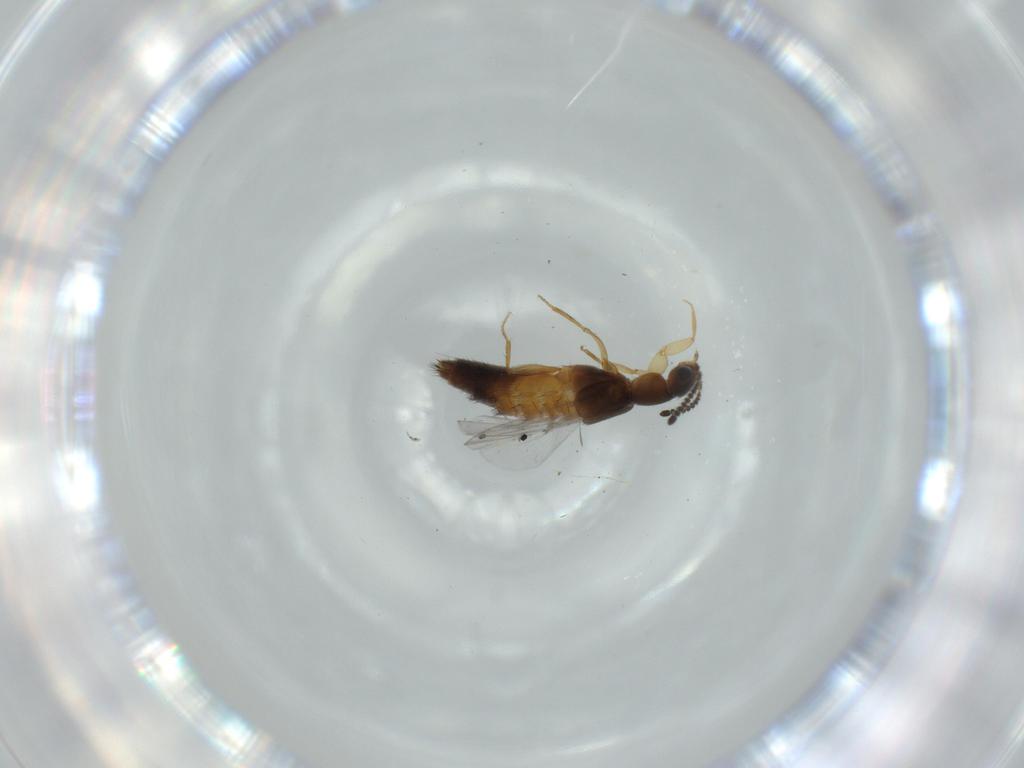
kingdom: Animalia
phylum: Arthropoda
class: Insecta
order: Coleoptera
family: Staphylinidae
